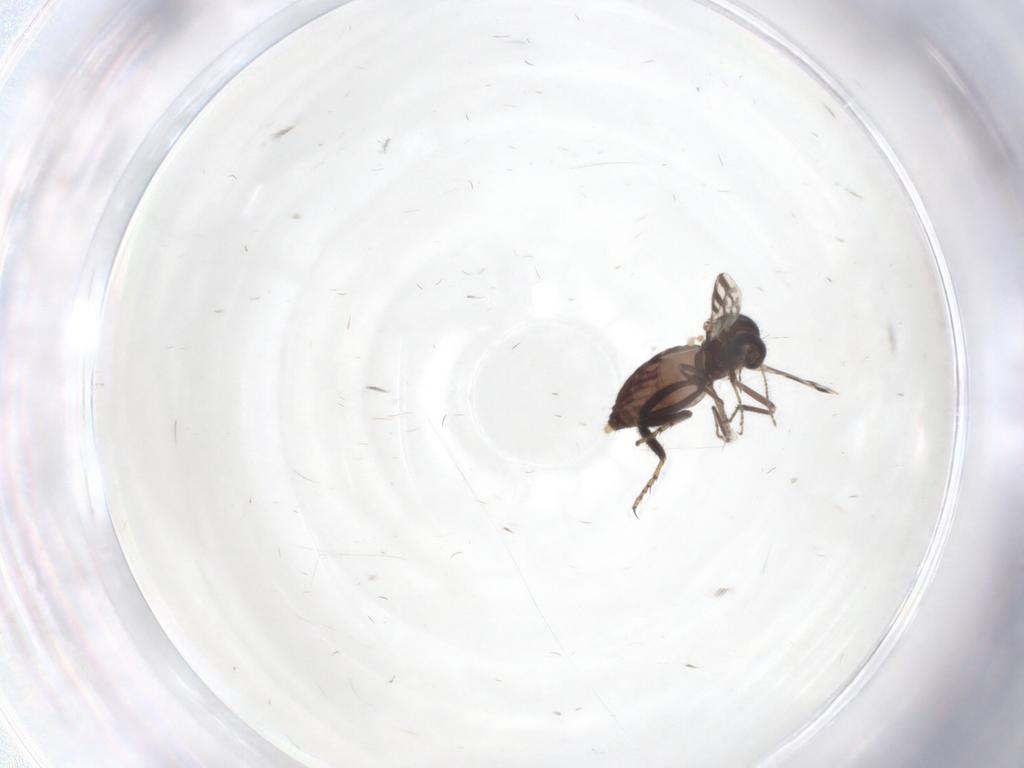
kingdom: Animalia
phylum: Arthropoda
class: Insecta
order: Diptera
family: Ceratopogonidae
